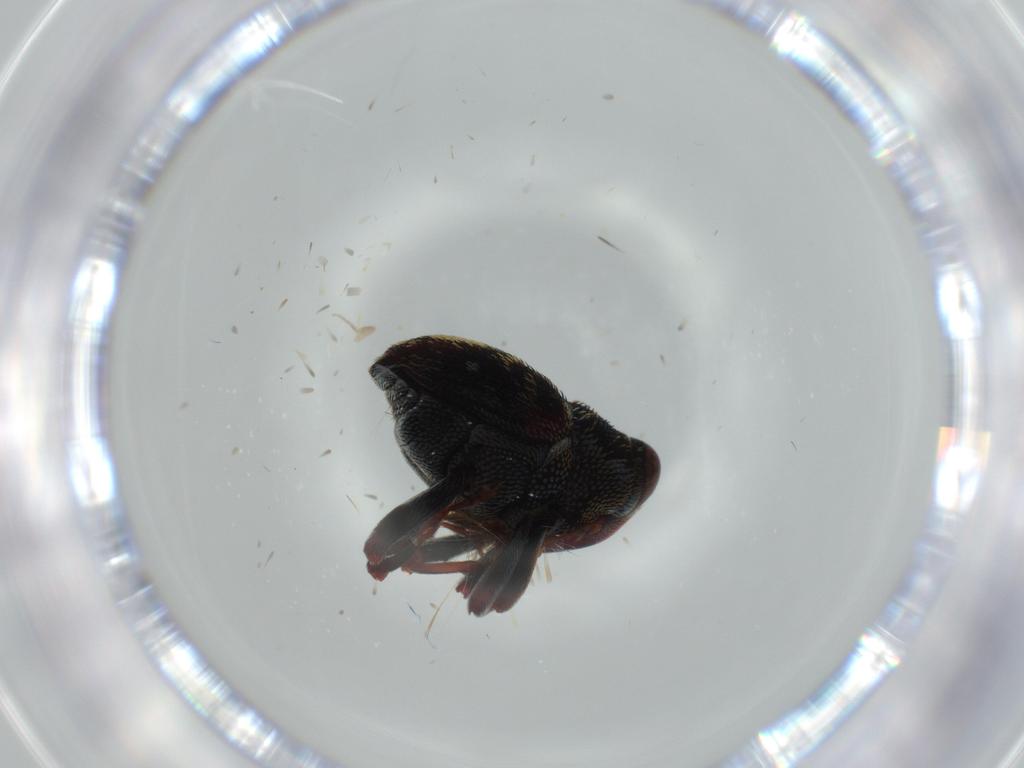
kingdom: Animalia
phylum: Arthropoda
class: Insecta
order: Coleoptera
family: Curculionidae
